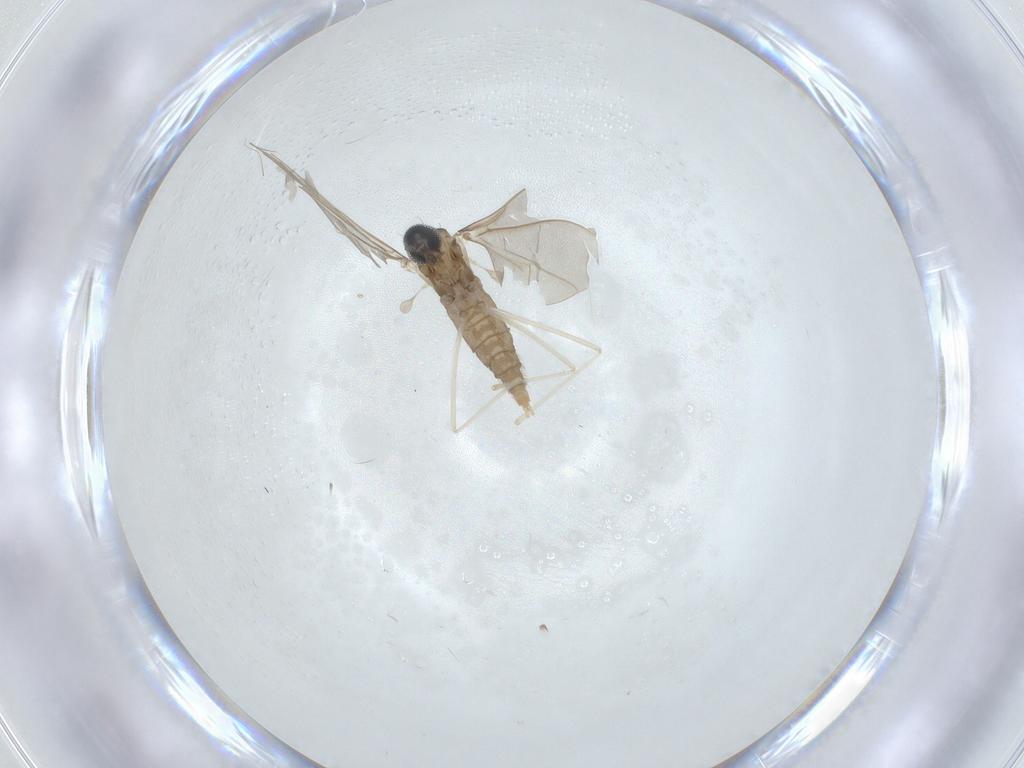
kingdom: Animalia
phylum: Arthropoda
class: Insecta
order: Diptera
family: Ceratopogonidae
